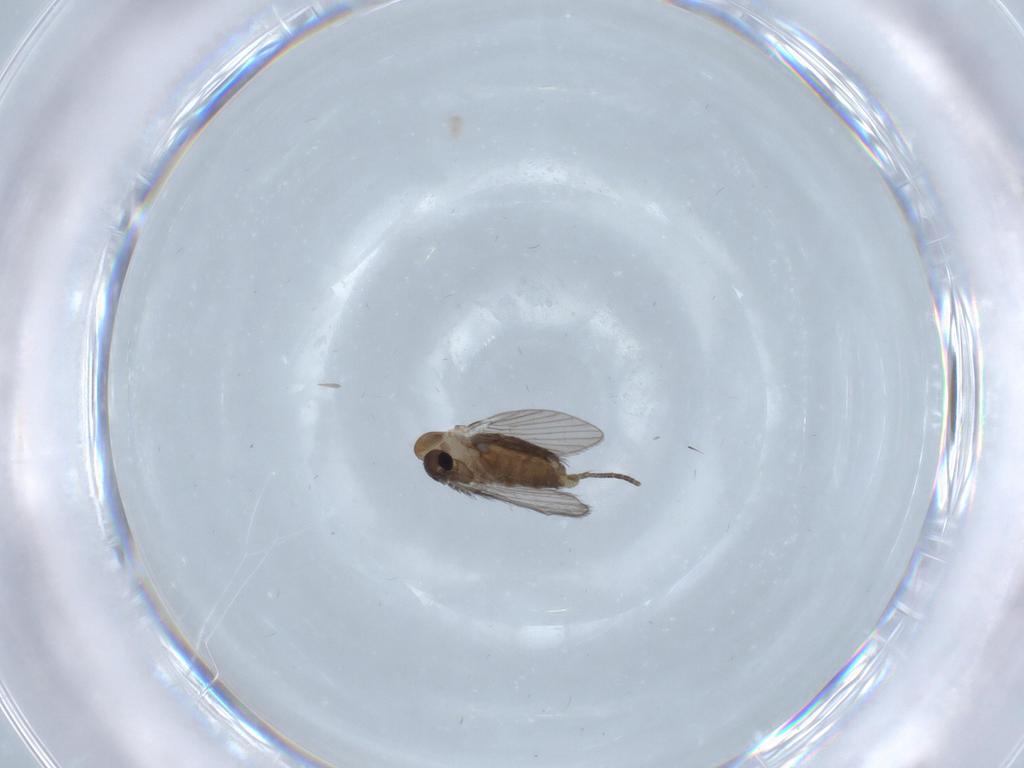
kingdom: Animalia
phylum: Arthropoda
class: Insecta
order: Diptera
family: Psychodidae
